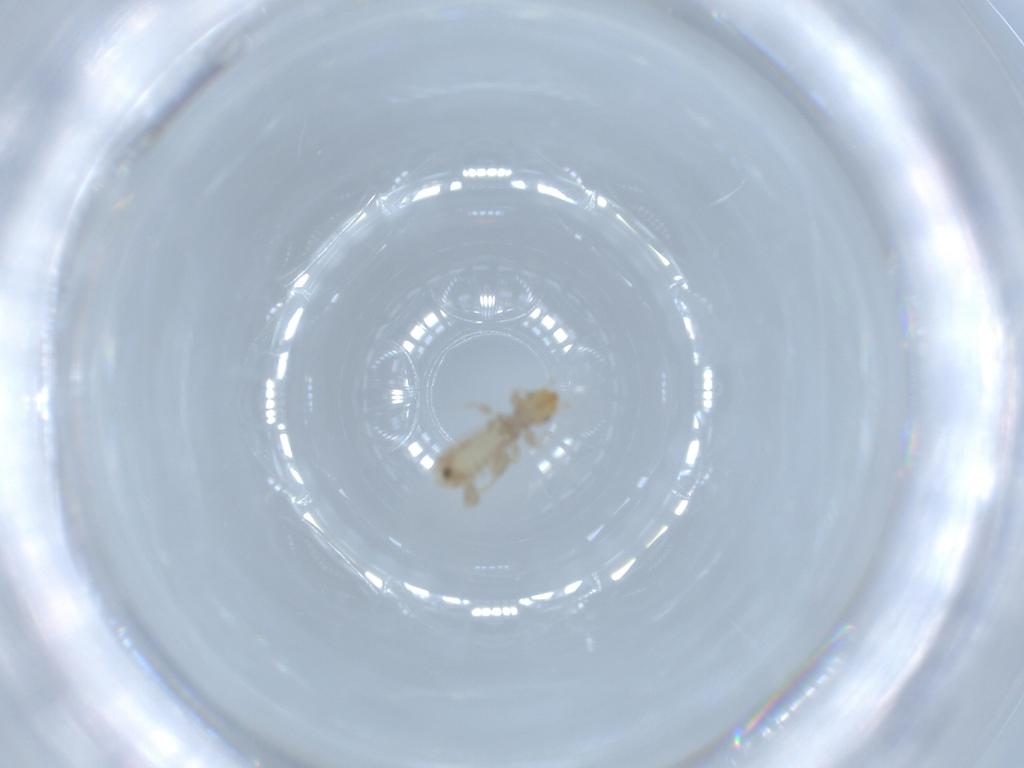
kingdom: Animalia
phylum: Arthropoda
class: Insecta
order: Psocodea
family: Liposcelididae
